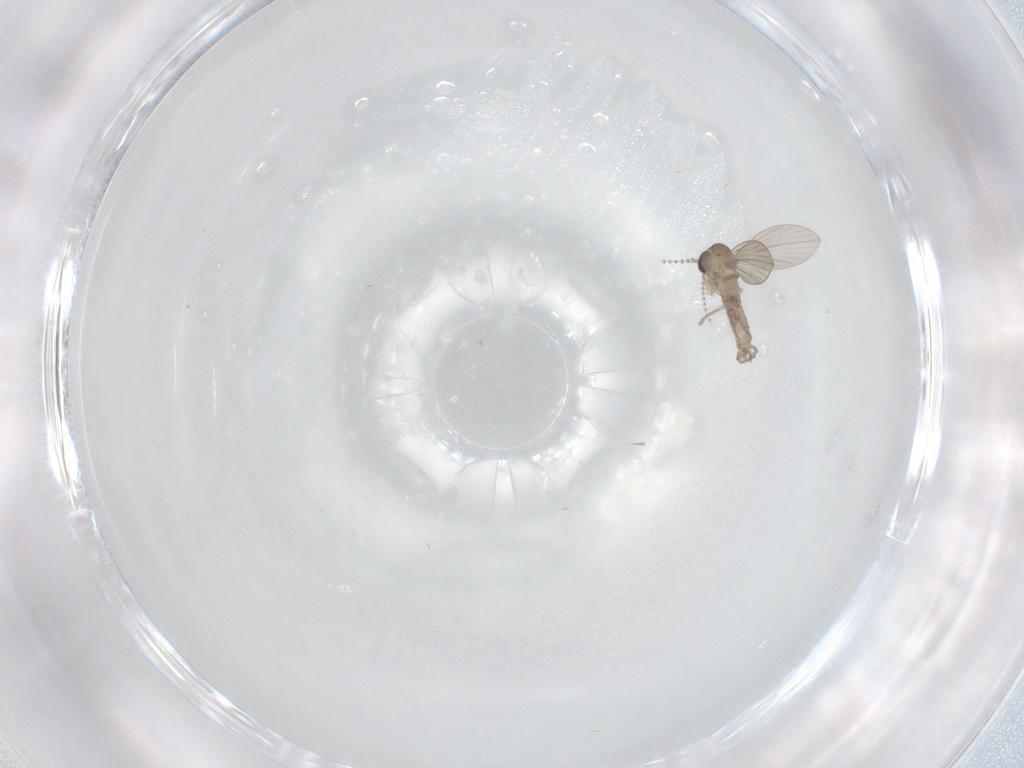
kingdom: Animalia
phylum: Arthropoda
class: Insecta
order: Diptera
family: Psychodidae
